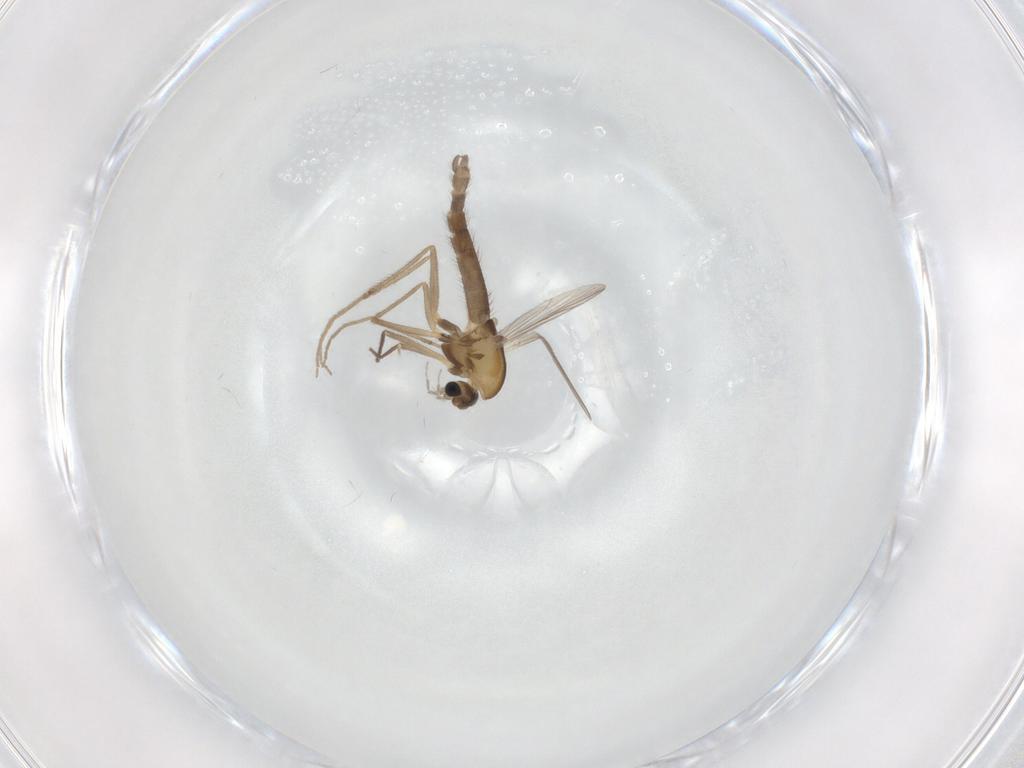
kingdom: Animalia
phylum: Arthropoda
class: Insecta
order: Diptera
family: Chironomidae
